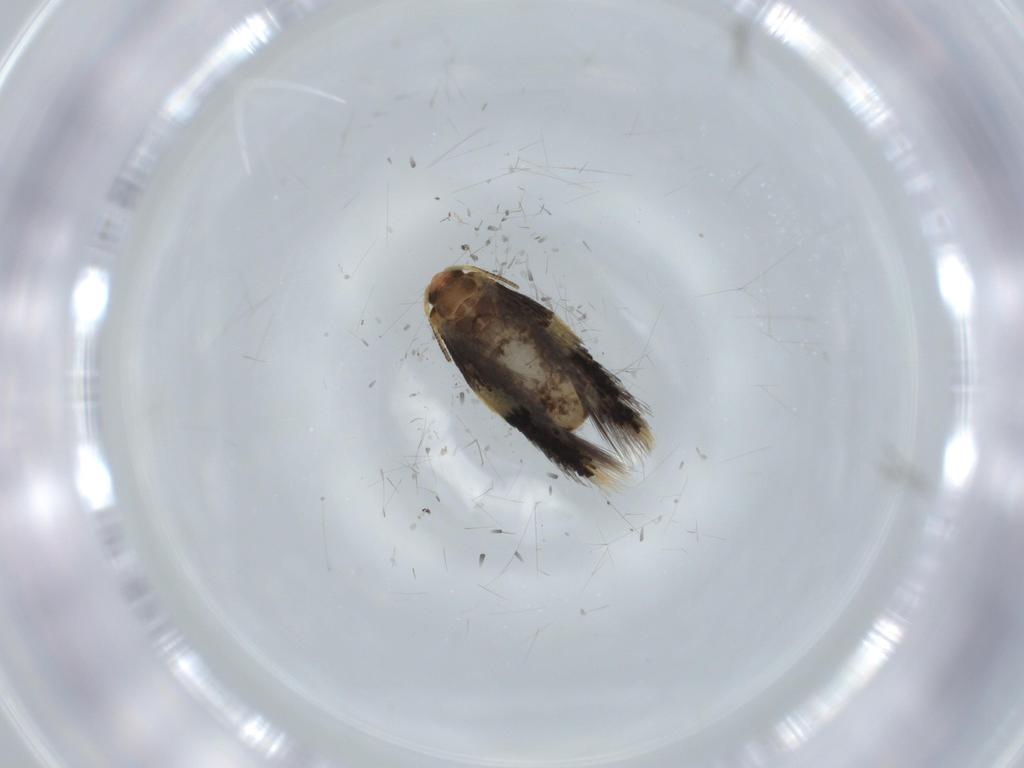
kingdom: Animalia
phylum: Arthropoda
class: Insecta
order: Lepidoptera
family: Nepticulidae
